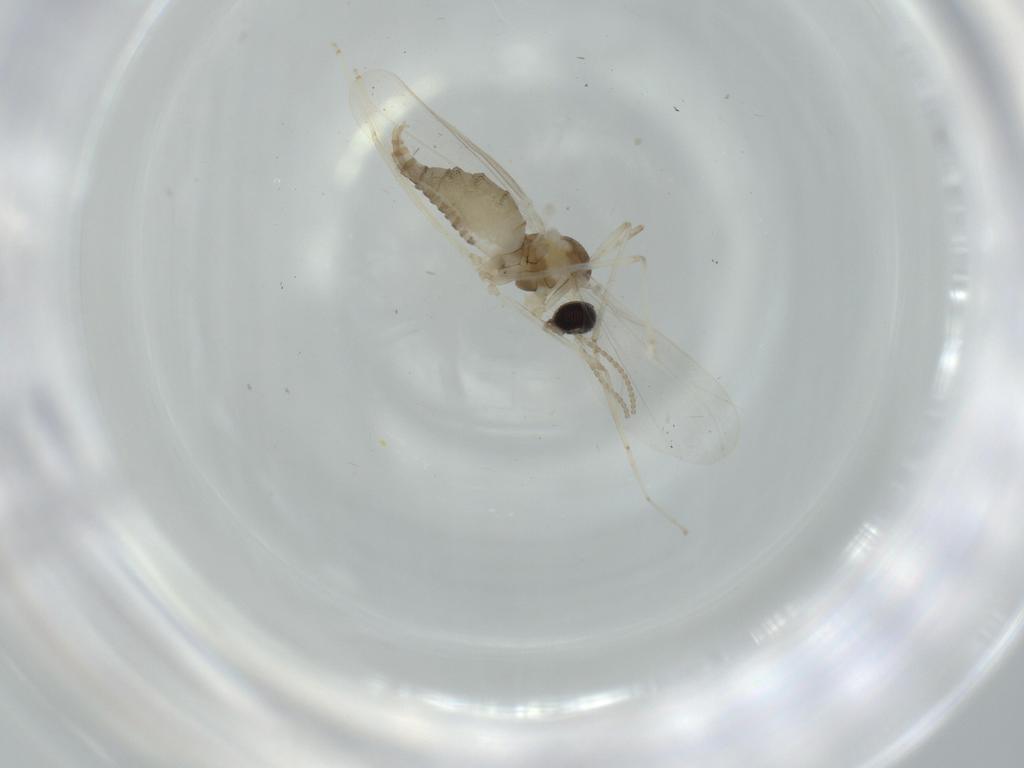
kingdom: Animalia
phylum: Arthropoda
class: Insecta
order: Diptera
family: Cecidomyiidae
